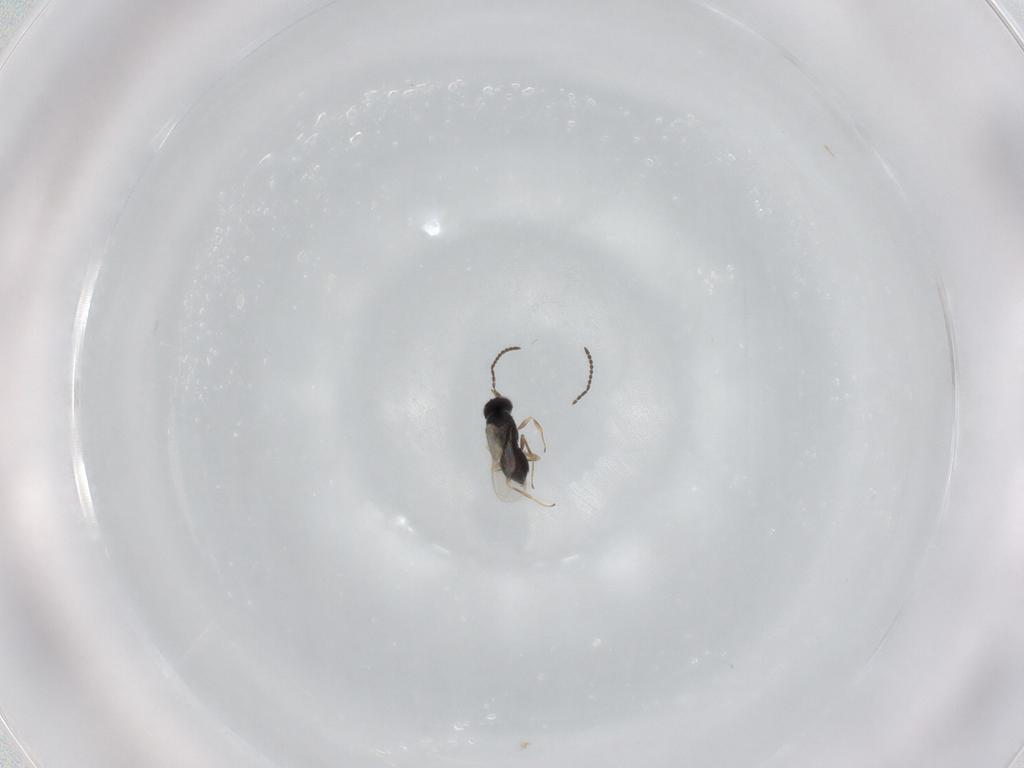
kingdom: Animalia
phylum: Arthropoda
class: Insecta
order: Hymenoptera
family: Scelionidae
